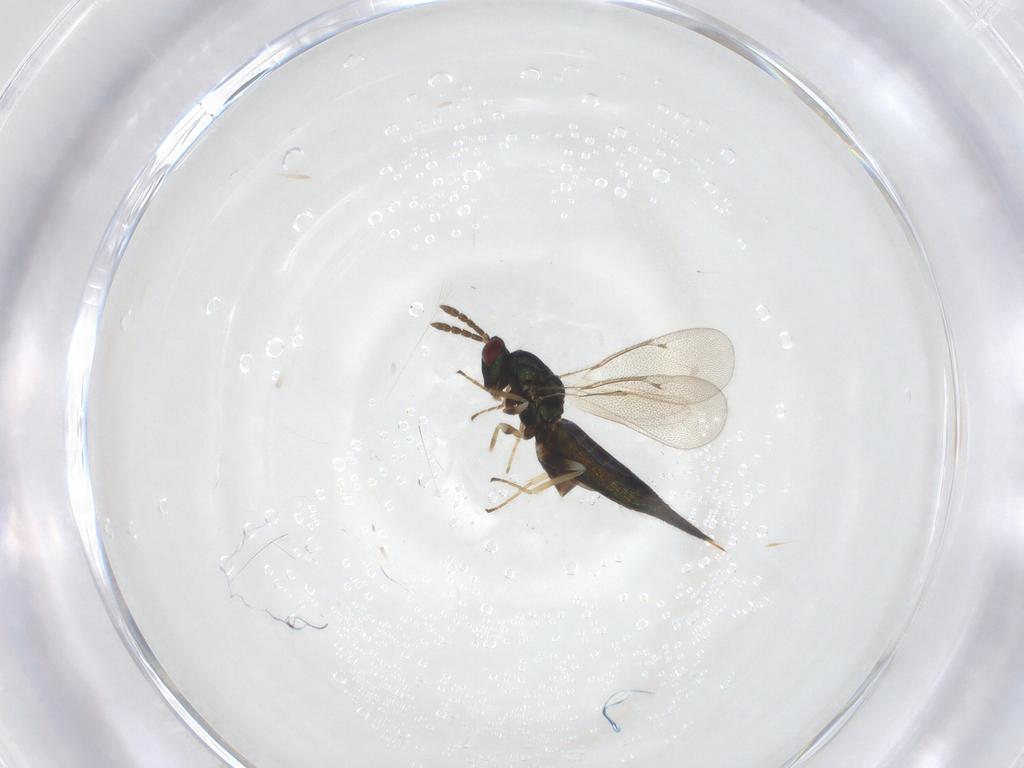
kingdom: Animalia
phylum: Arthropoda
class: Insecta
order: Hymenoptera
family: Eulophidae
